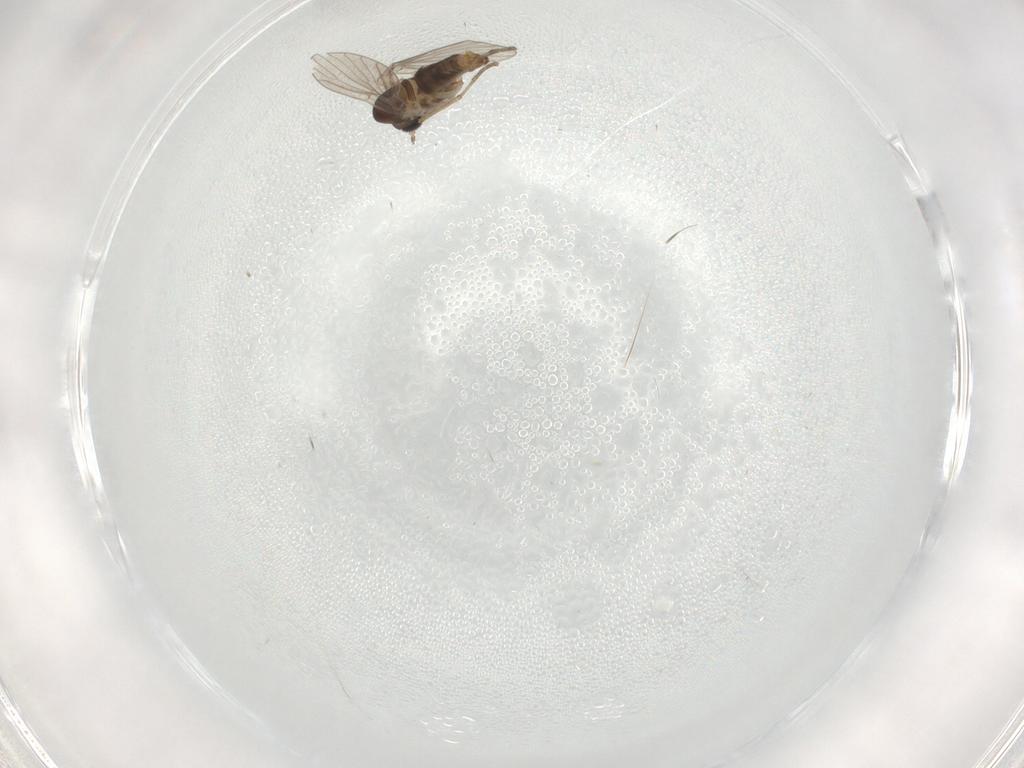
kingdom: Animalia
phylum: Arthropoda
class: Insecta
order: Diptera
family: Psychodidae
